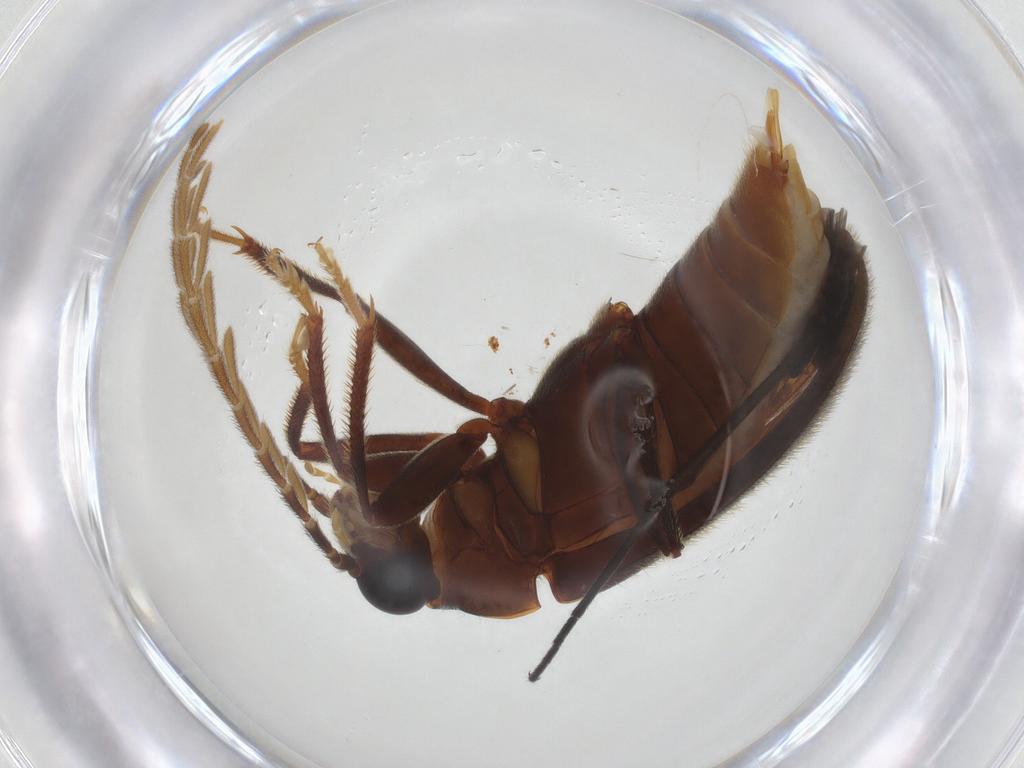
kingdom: Animalia
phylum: Arthropoda
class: Insecta
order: Coleoptera
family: Ptilodactylidae
